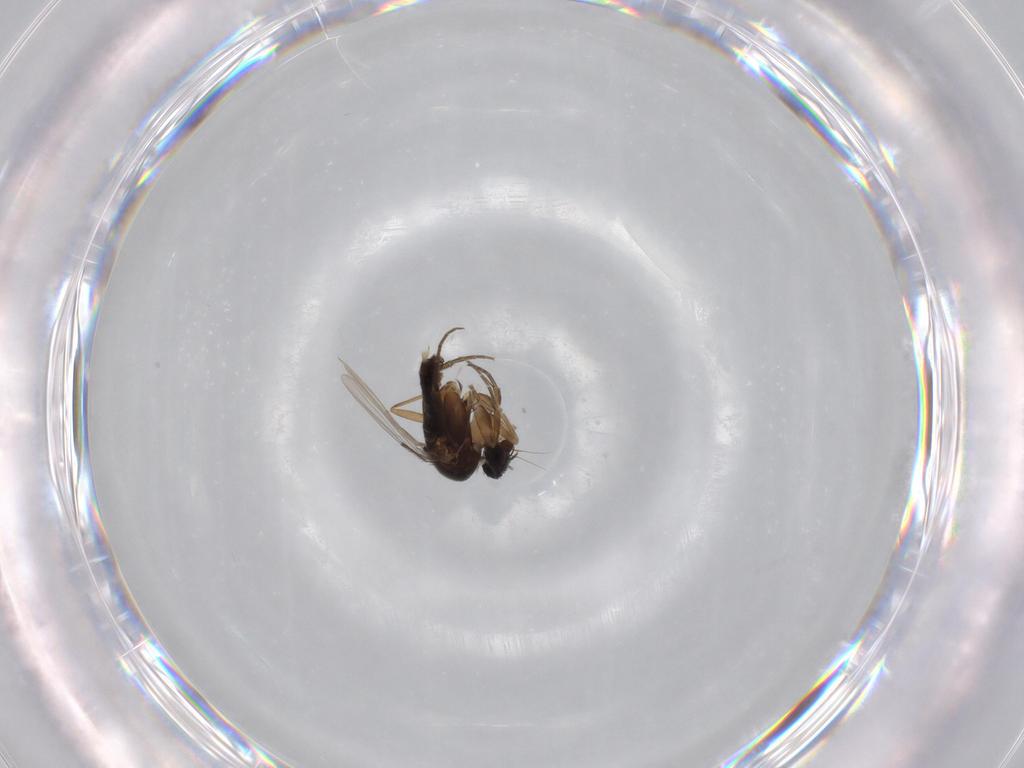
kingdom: Animalia
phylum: Arthropoda
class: Insecta
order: Diptera
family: Phoridae
